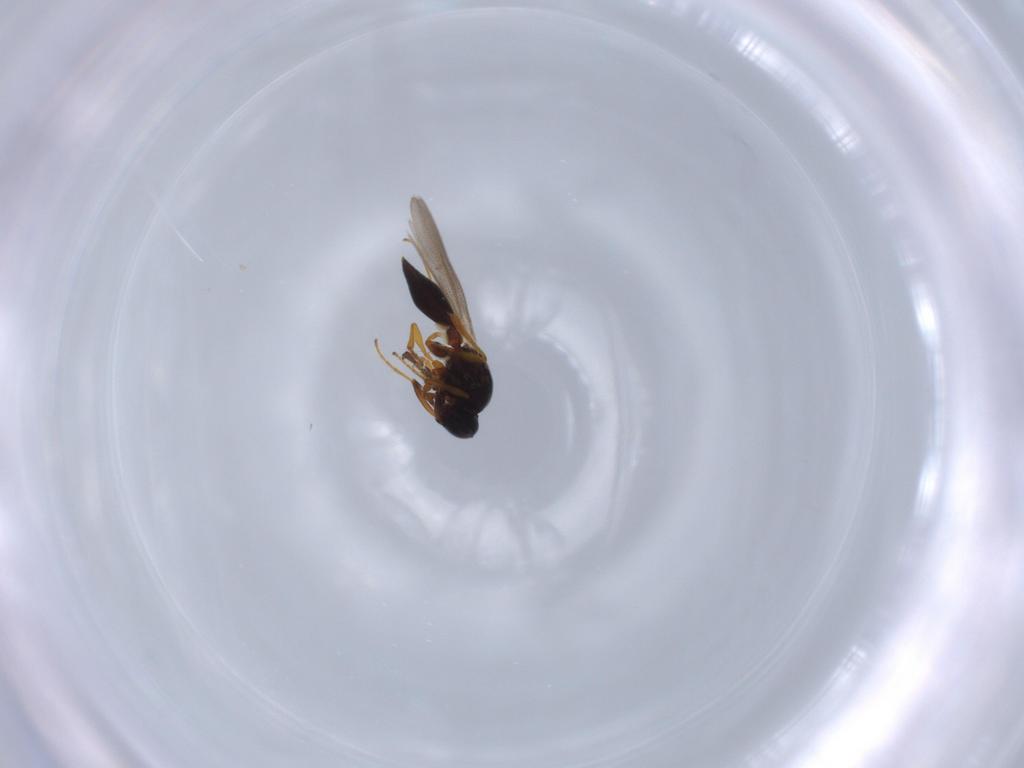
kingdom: Animalia
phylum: Arthropoda
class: Insecta
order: Hymenoptera
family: Platygastridae
